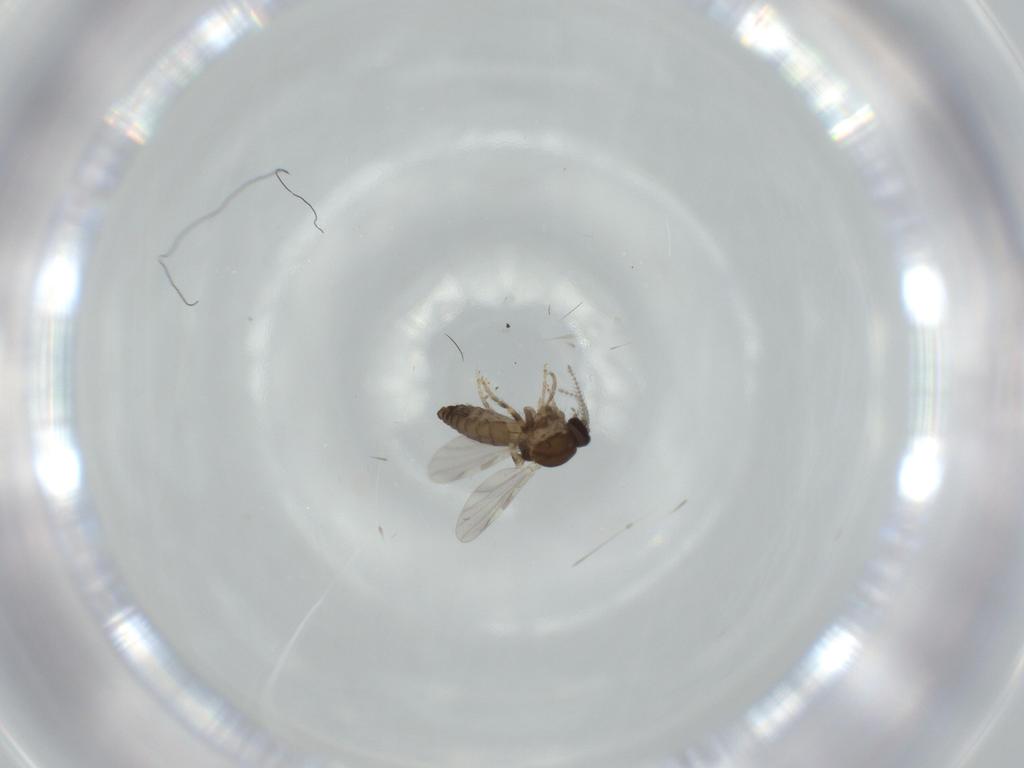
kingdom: Animalia
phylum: Arthropoda
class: Insecta
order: Diptera
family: Ceratopogonidae
